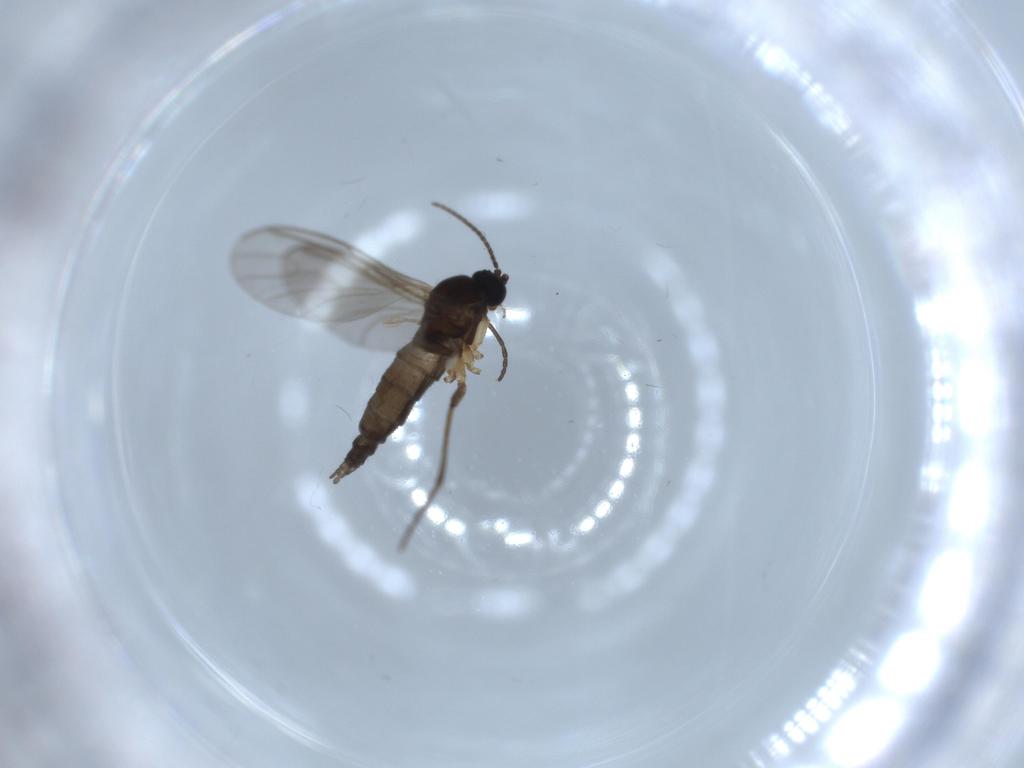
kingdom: Animalia
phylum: Arthropoda
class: Insecta
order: Diptera
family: Scathophagidae
